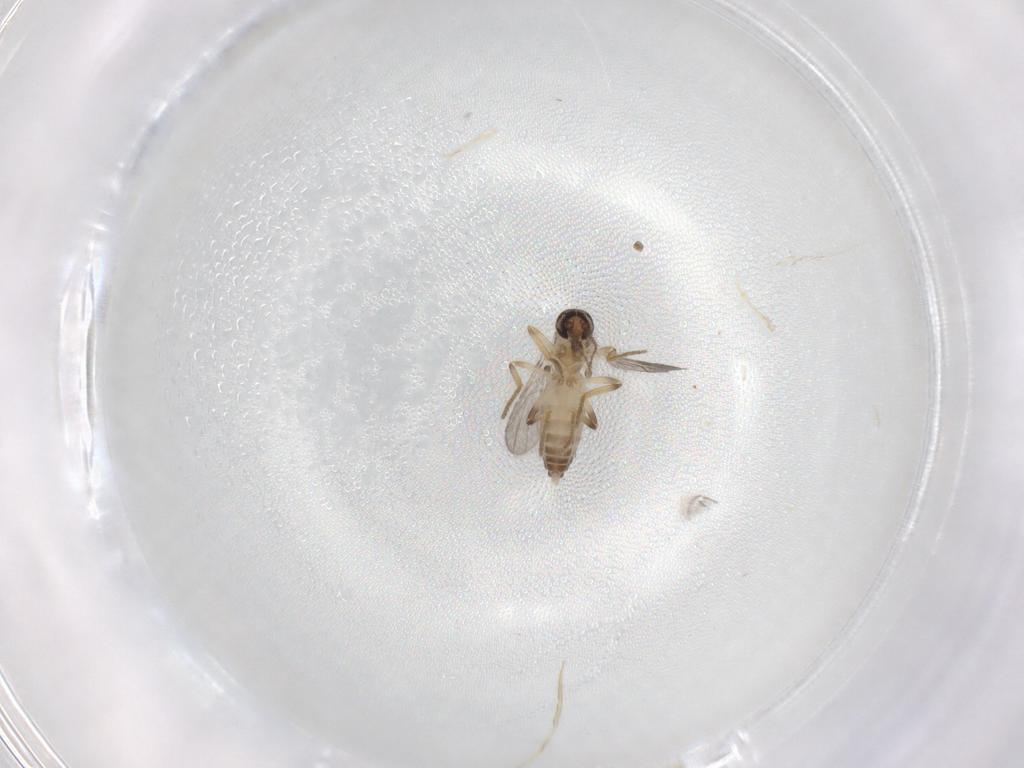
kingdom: Animalia
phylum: Arthropoda
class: Insecta
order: Diptera
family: Ceratopogonidae
